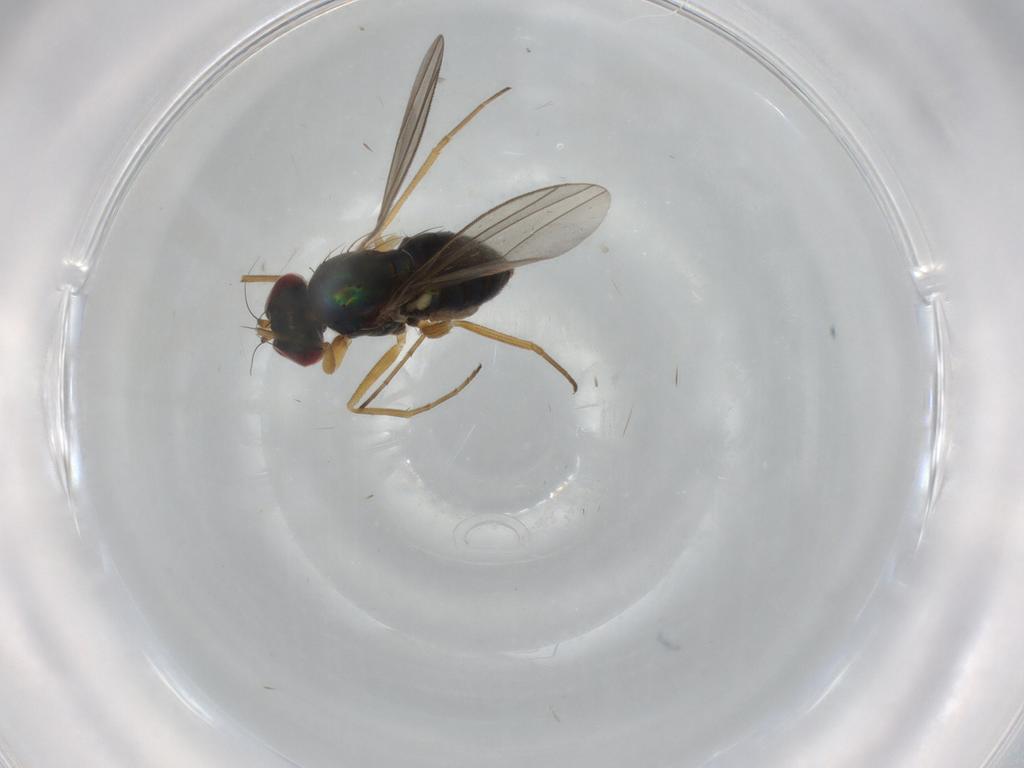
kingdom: Animalia
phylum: Arthropoda
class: Insecta
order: Diptera
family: Dolichopodidae
